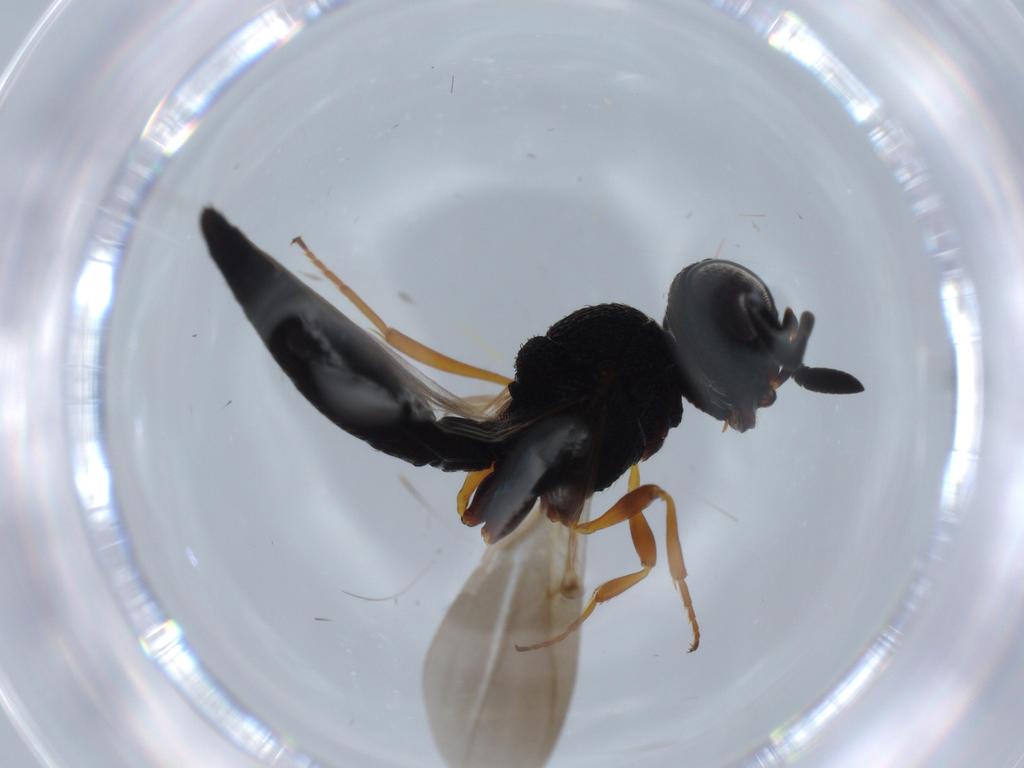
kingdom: Animalia
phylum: Arthropoda
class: Insecta
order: Hymenoptera
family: Scelionidae
